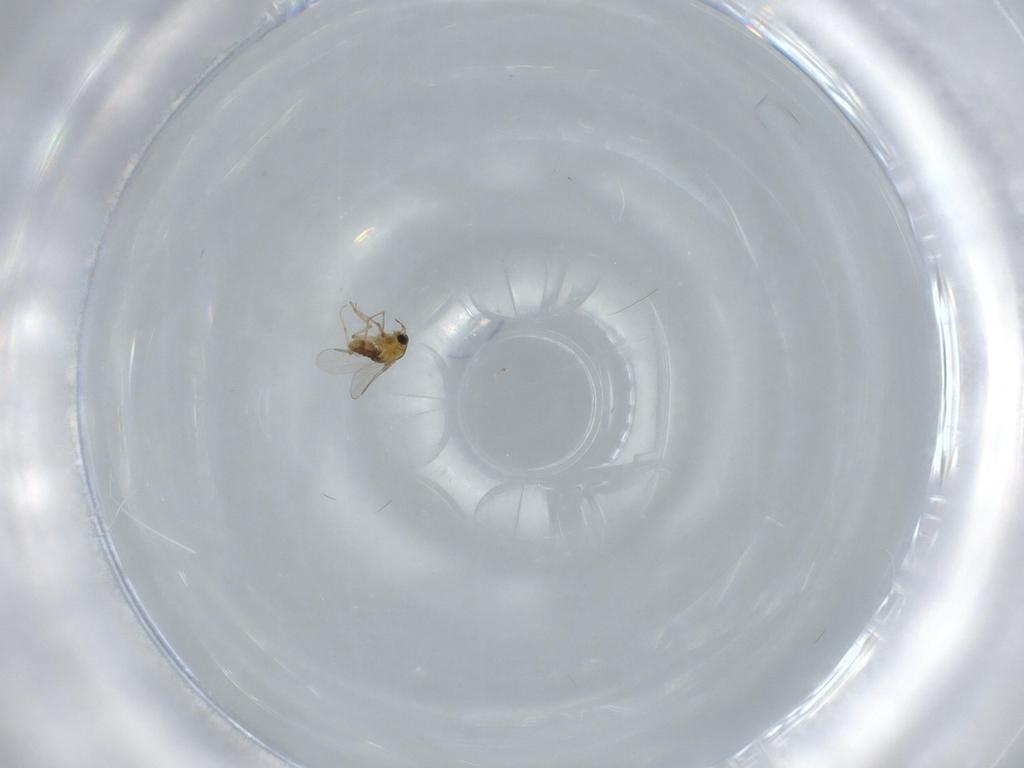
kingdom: Animalia
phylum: Arthropoda
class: Insecta
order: Diptera
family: Chironomidae
